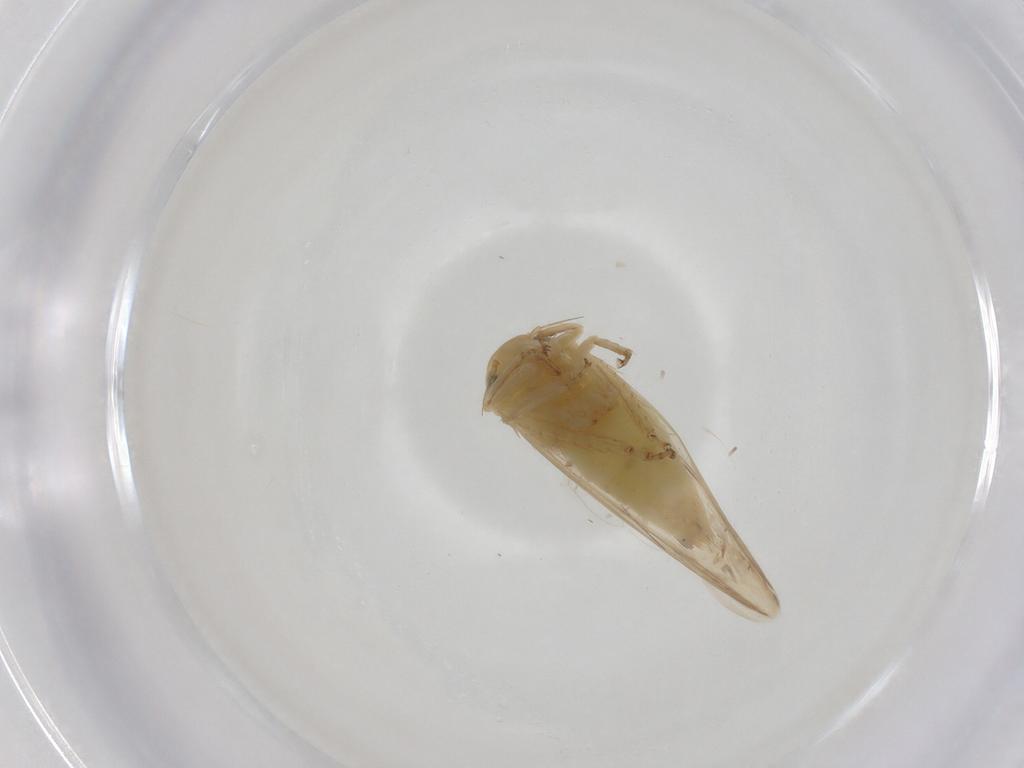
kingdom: Animalia
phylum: Arthropoda
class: Insecta
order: Hemiptera
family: Cicadellidae
